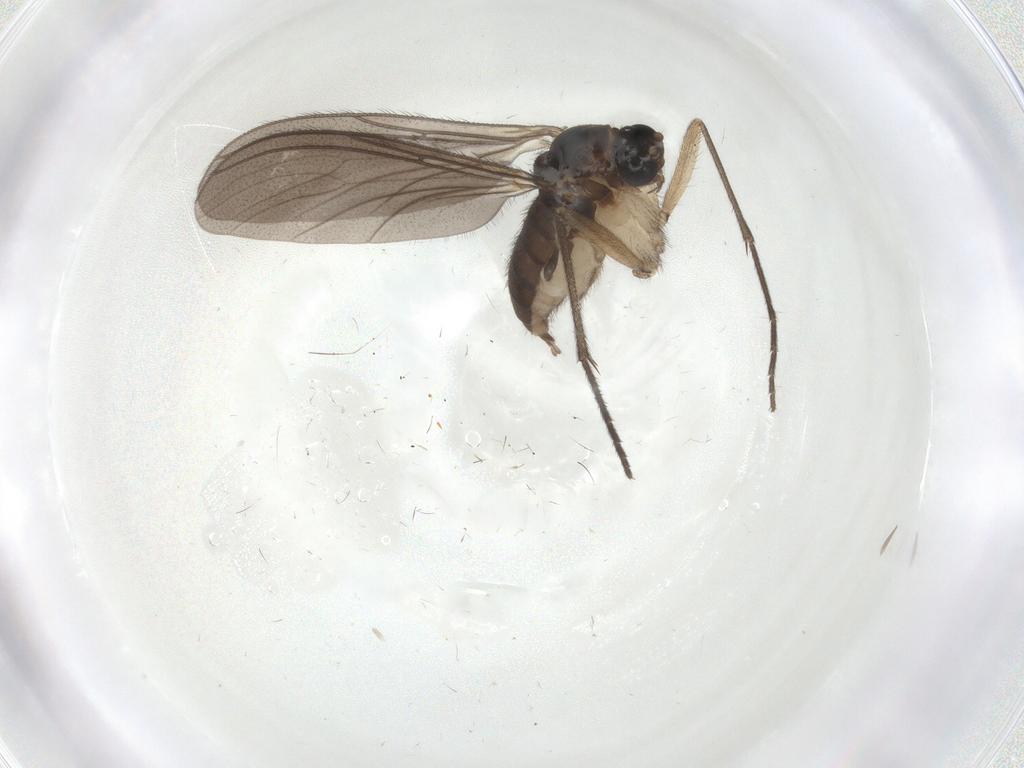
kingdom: Animalia
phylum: Arthropoda
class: Insecta
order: Diptera
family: Sciaridae
